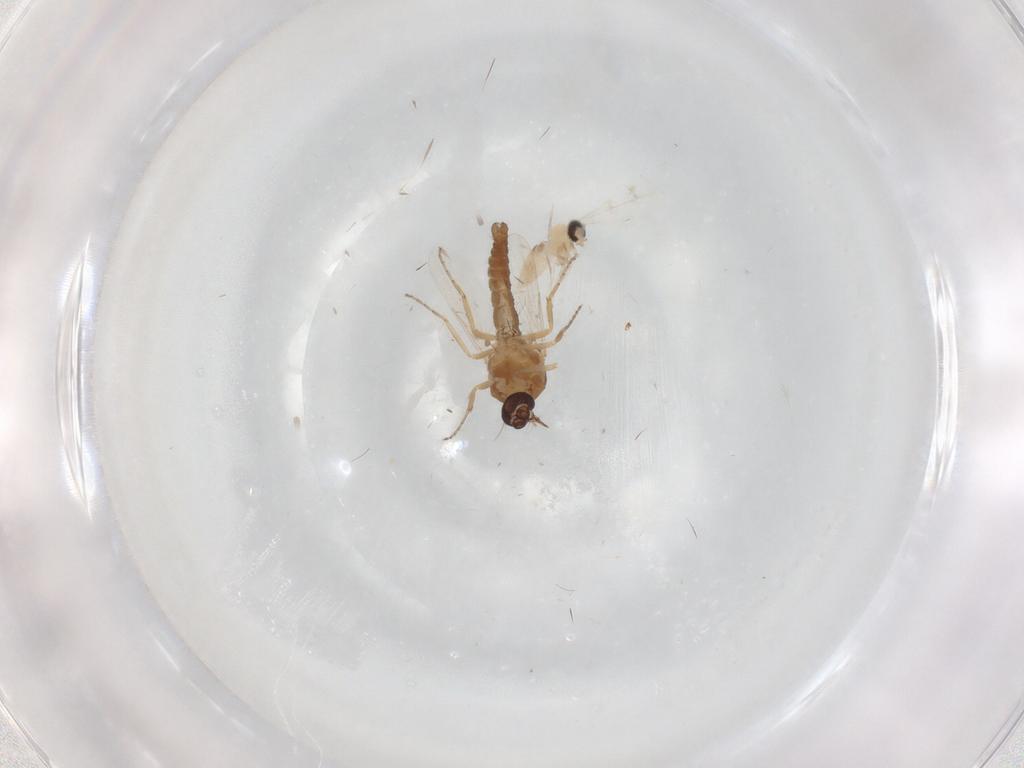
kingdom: Animalia
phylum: Arthropoda
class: Insecta
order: Diptera
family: Ceratopogonidae
